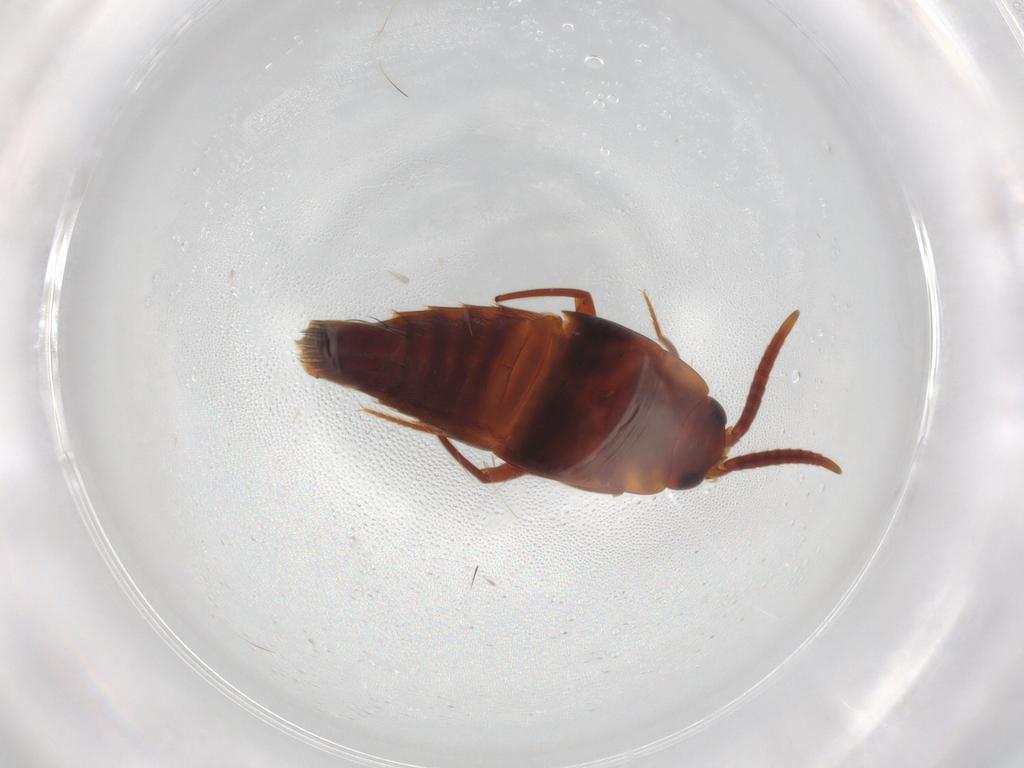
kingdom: Animalia
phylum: Arthropoda
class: Insecta
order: Coleoptera
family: Staphylinidae
